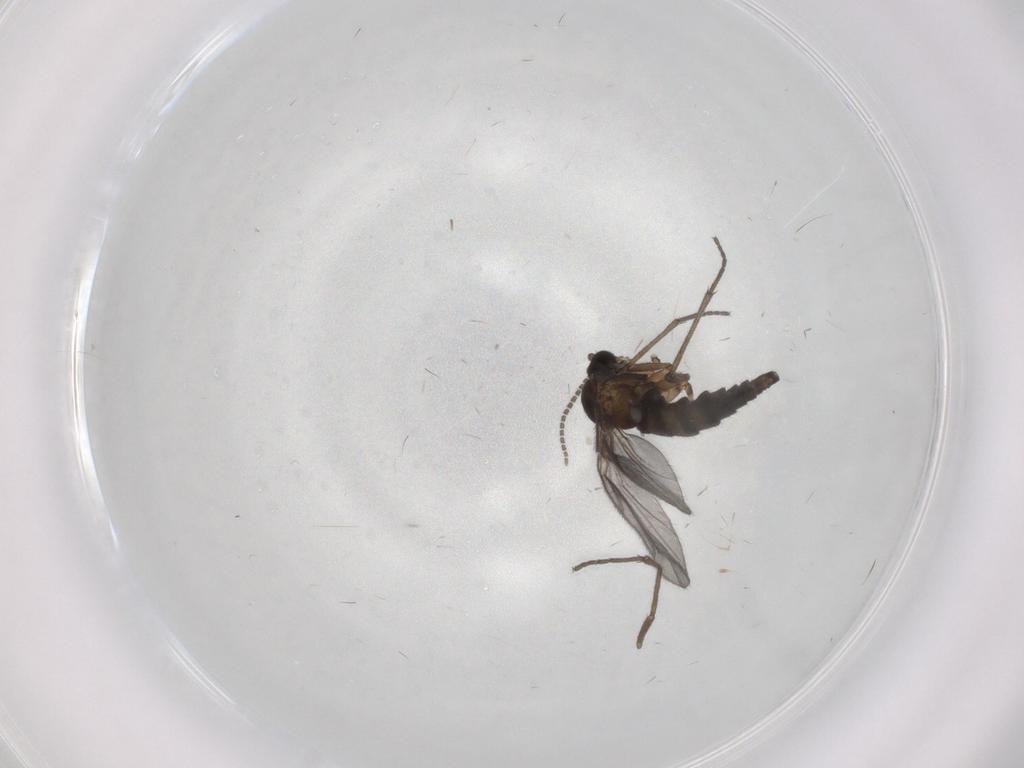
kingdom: Animalia
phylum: Arthropoda
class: Insecta
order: Diptera
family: Sciaridae
